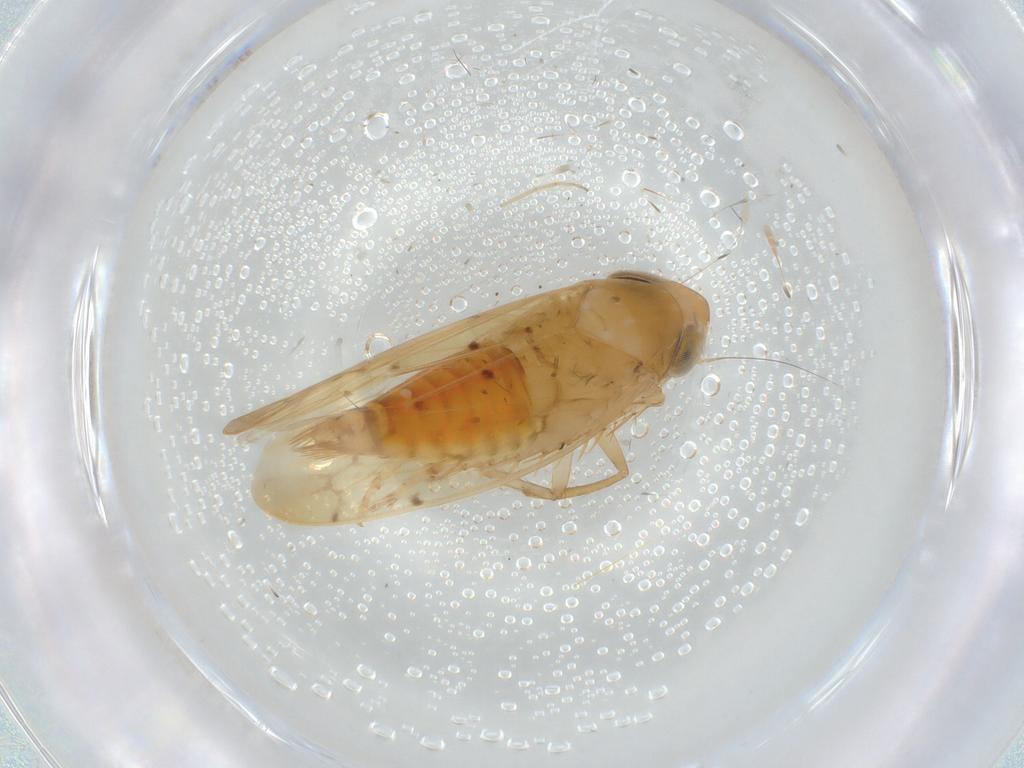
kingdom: Animalia
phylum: Arthropoda
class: Insecta
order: Hemiptera
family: Cicadellidae
